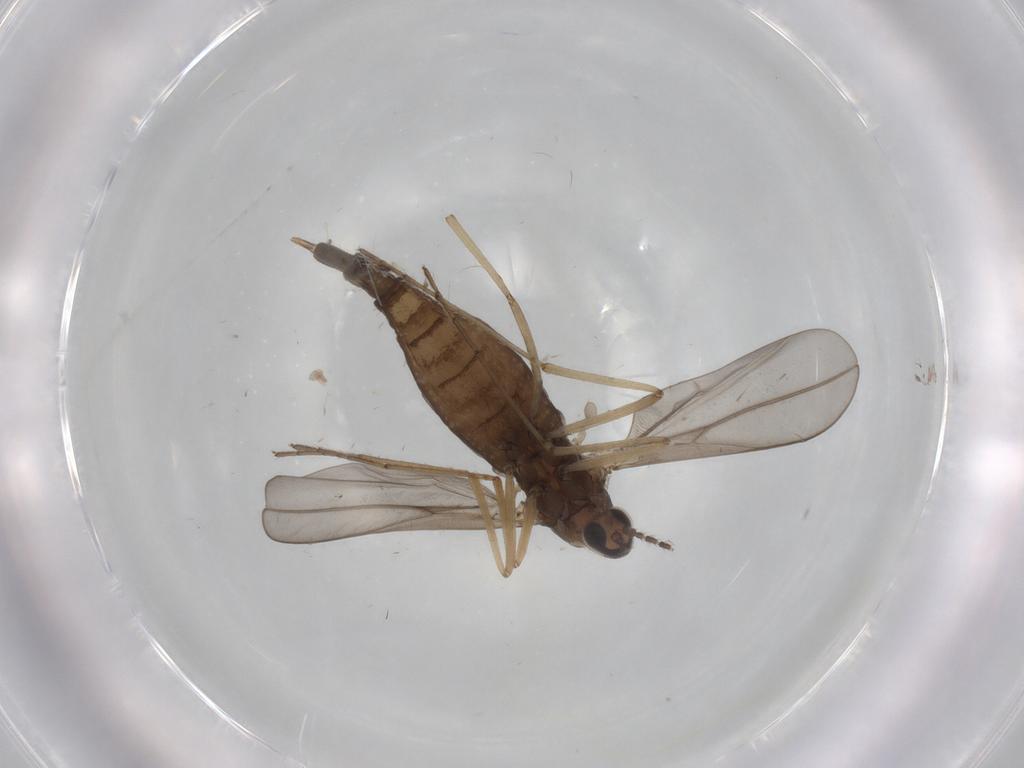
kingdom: Animalia
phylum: Arthropoda
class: Insecta
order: Diptera
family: Cecidomyiidae
